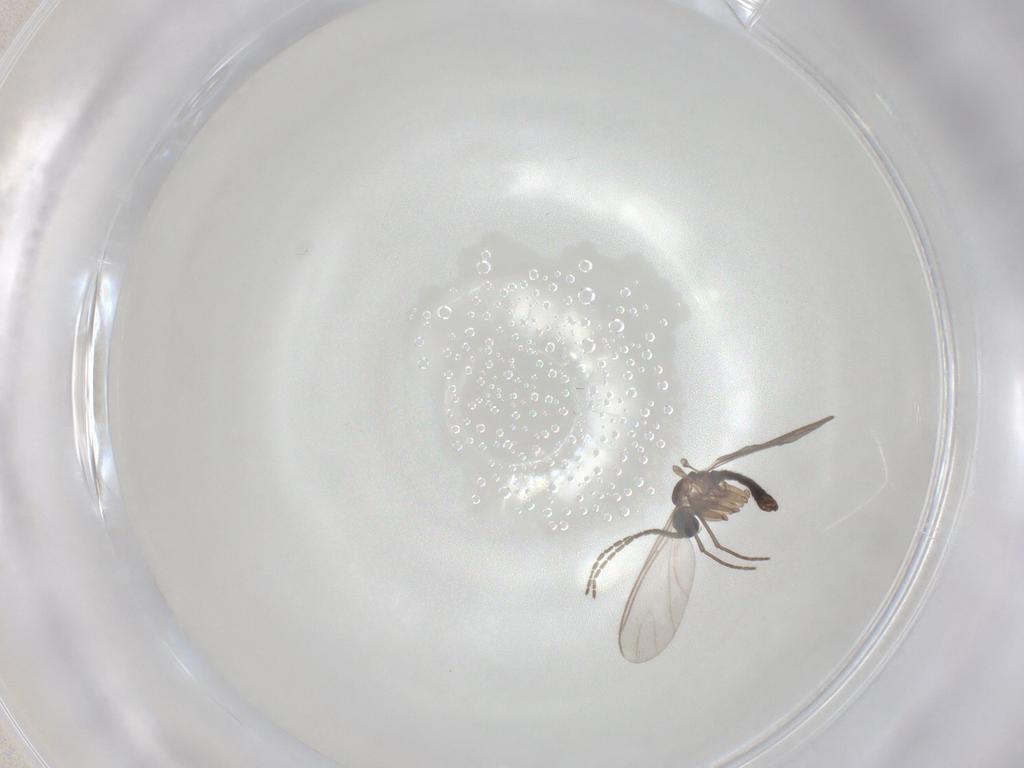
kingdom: Animalia
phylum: Arthropoda
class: Insecta
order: Diptera
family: Sciaridae
